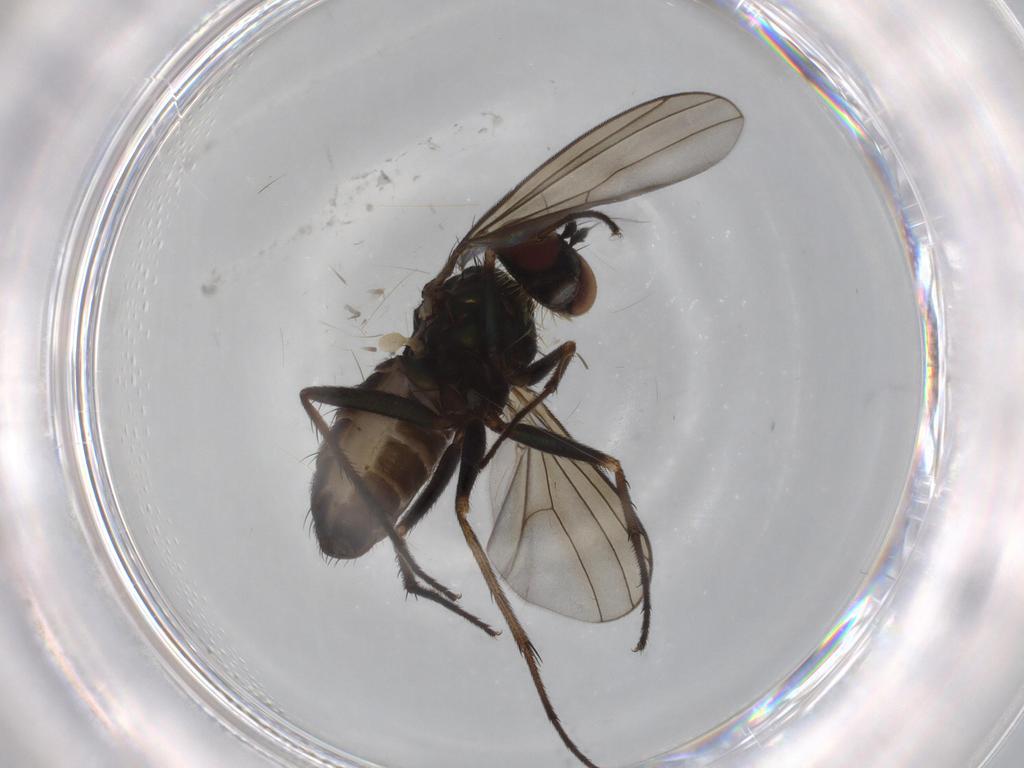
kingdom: Animalia
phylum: Arthropoda
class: Insecta
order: Diptera
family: Dolichopodidae
